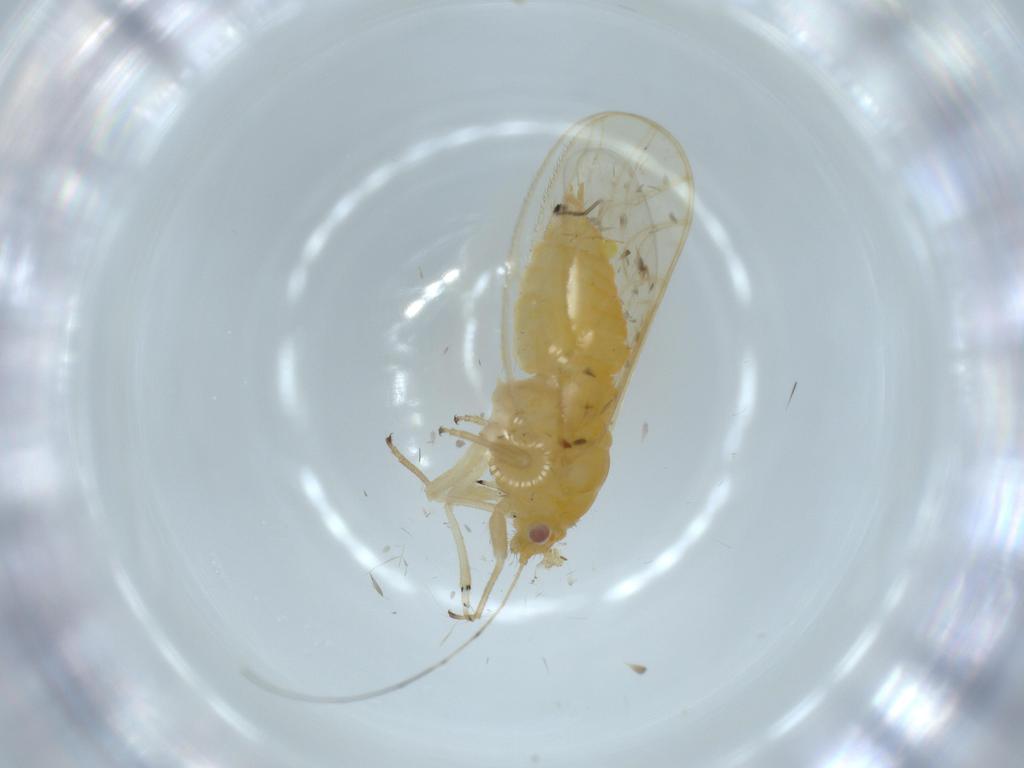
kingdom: Animalia
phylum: Arthropoda
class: Insecta
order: Hemiptera
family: Psyllidae
